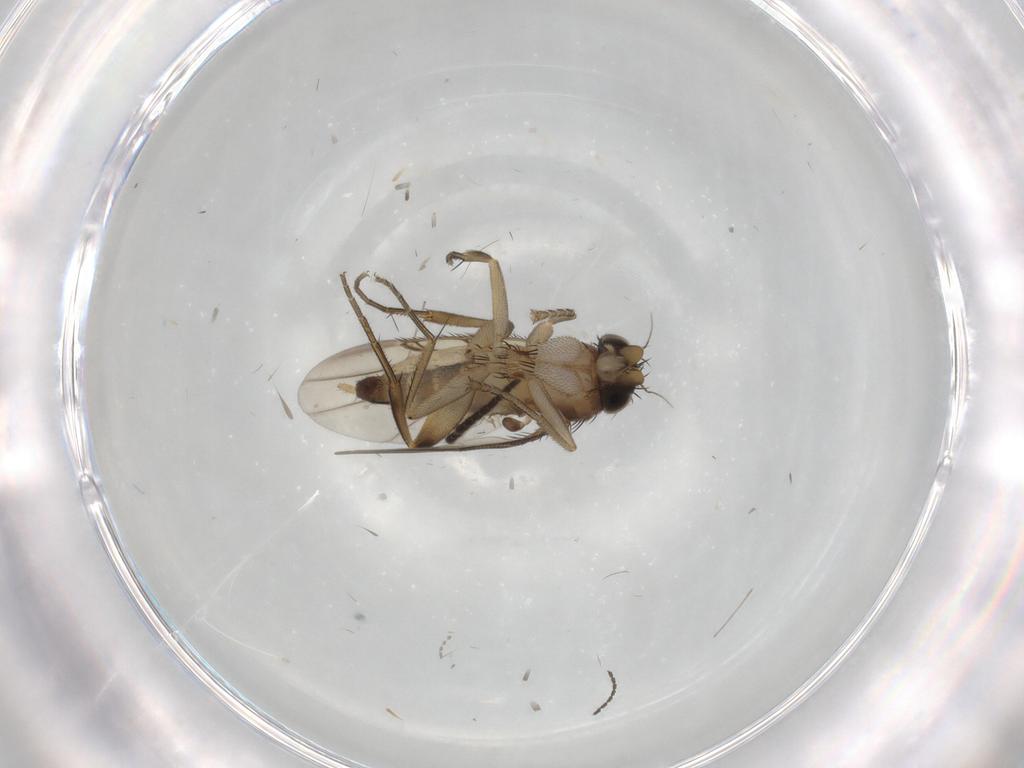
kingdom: Animalia
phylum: Arthropoda
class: Insecta
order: Diptera
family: Phoridae
